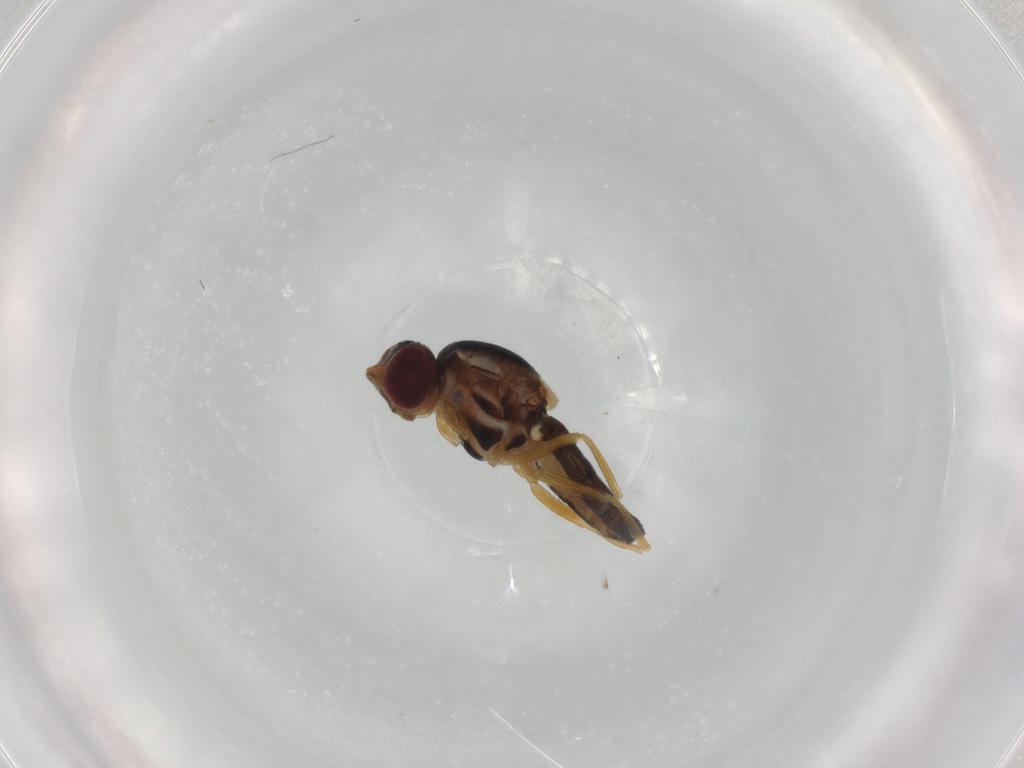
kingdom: Animalia
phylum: Arthropoda
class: Insecta
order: Diptera
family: Chloropidae
